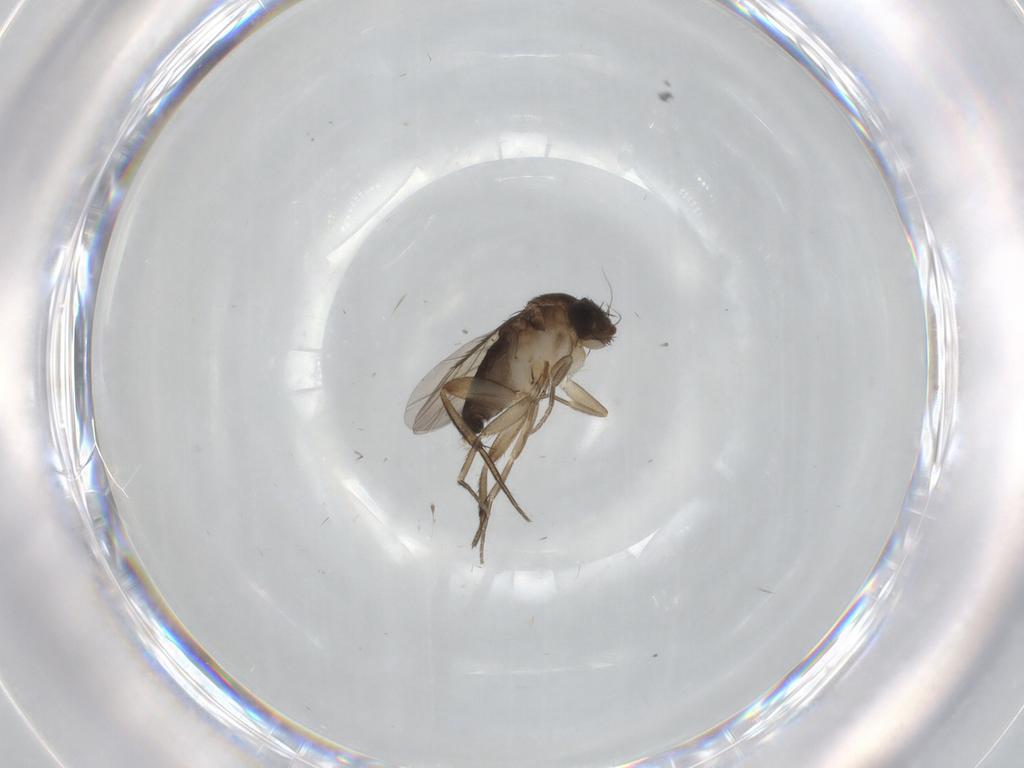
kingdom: Animalia
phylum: Arthropoda
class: Insecta
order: Diptera
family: Phoridae
